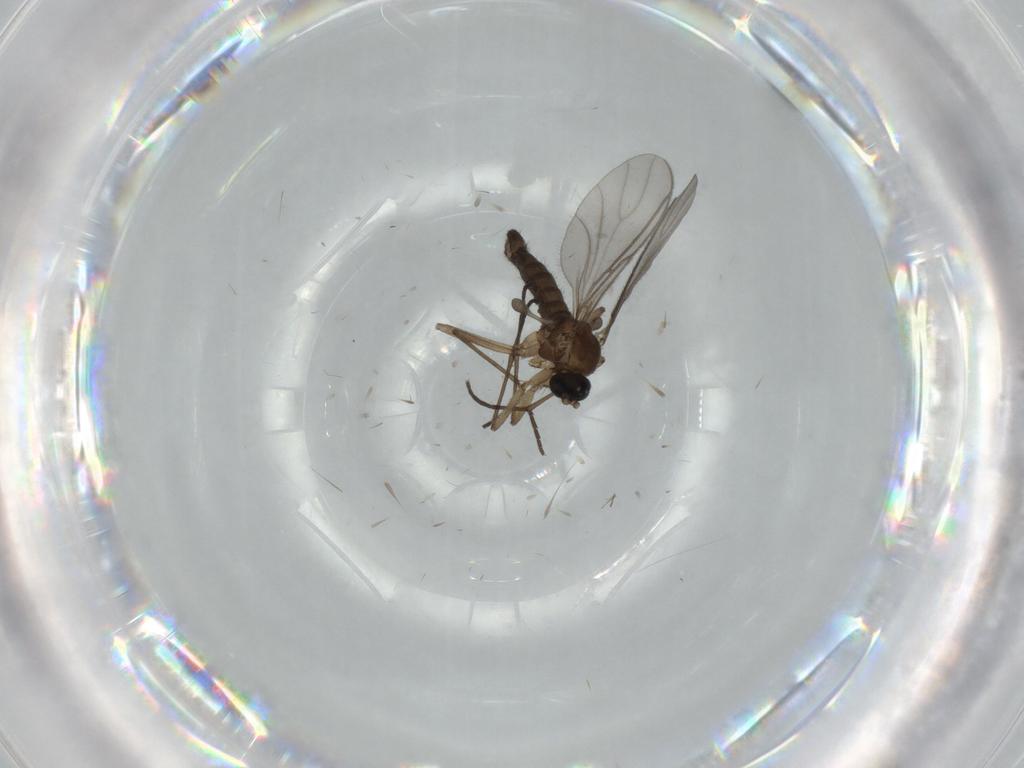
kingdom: Animalia
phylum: Arthropoda
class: Insecta
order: Diptera
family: Sciaridae
